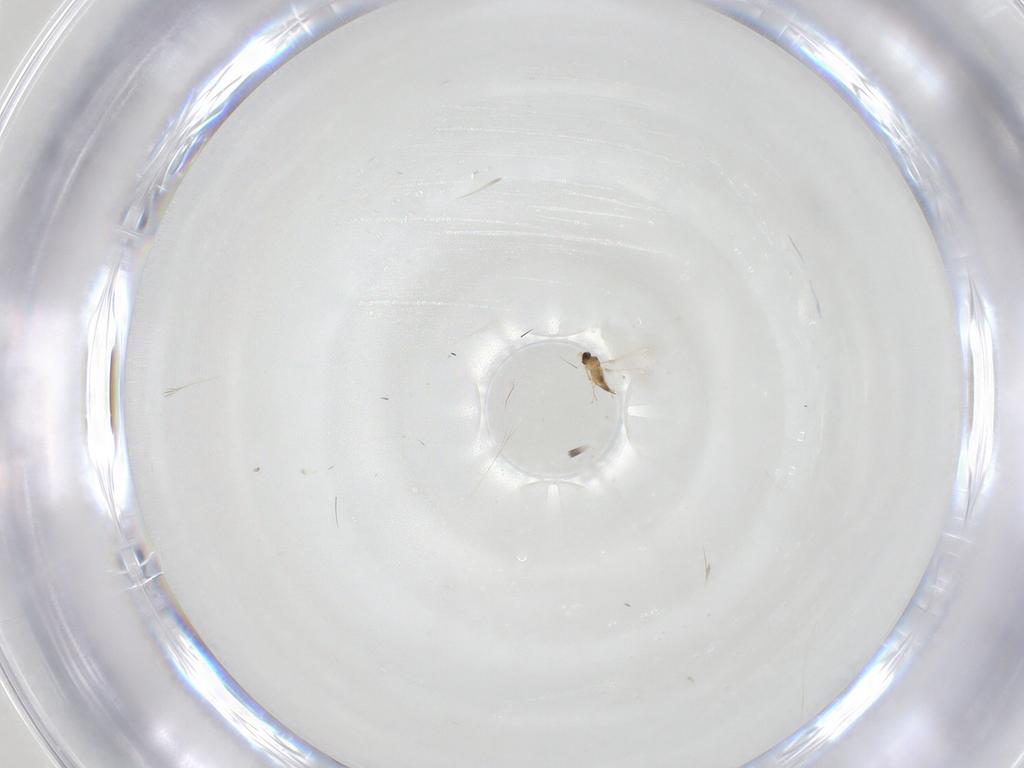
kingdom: Animalia
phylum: Arthropoda
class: Insecta
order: Hymenoptera
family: Mymaridae
